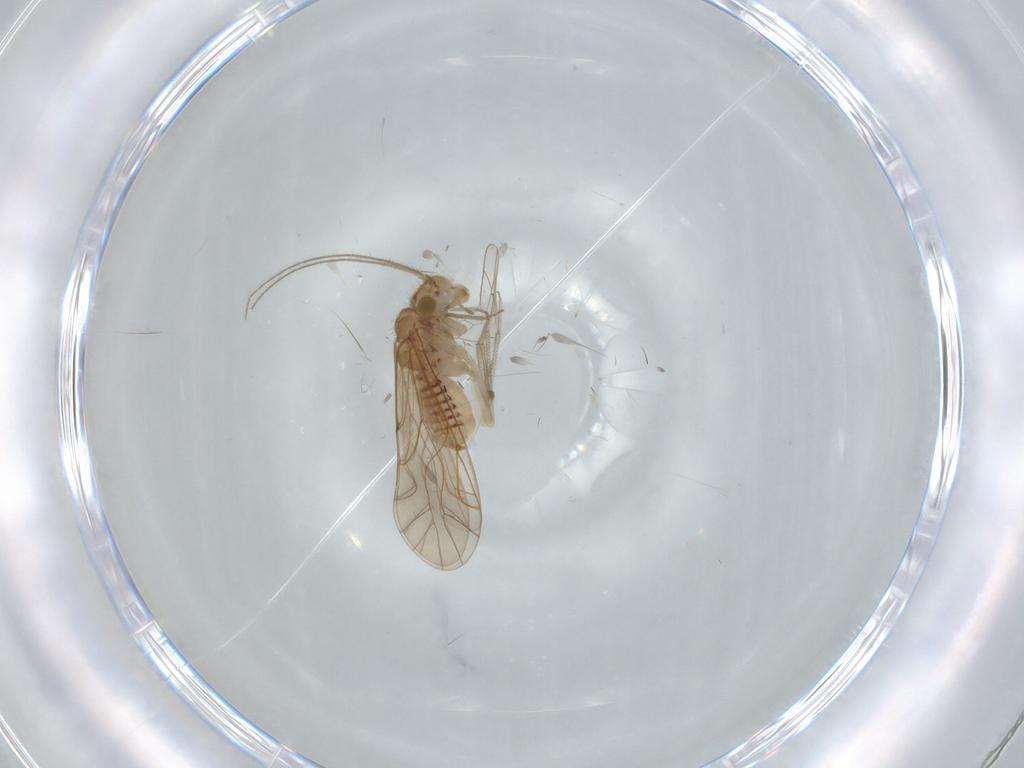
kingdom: Animalia
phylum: Arthropoda
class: Insecta
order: Psocodea
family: Lachesillidae
